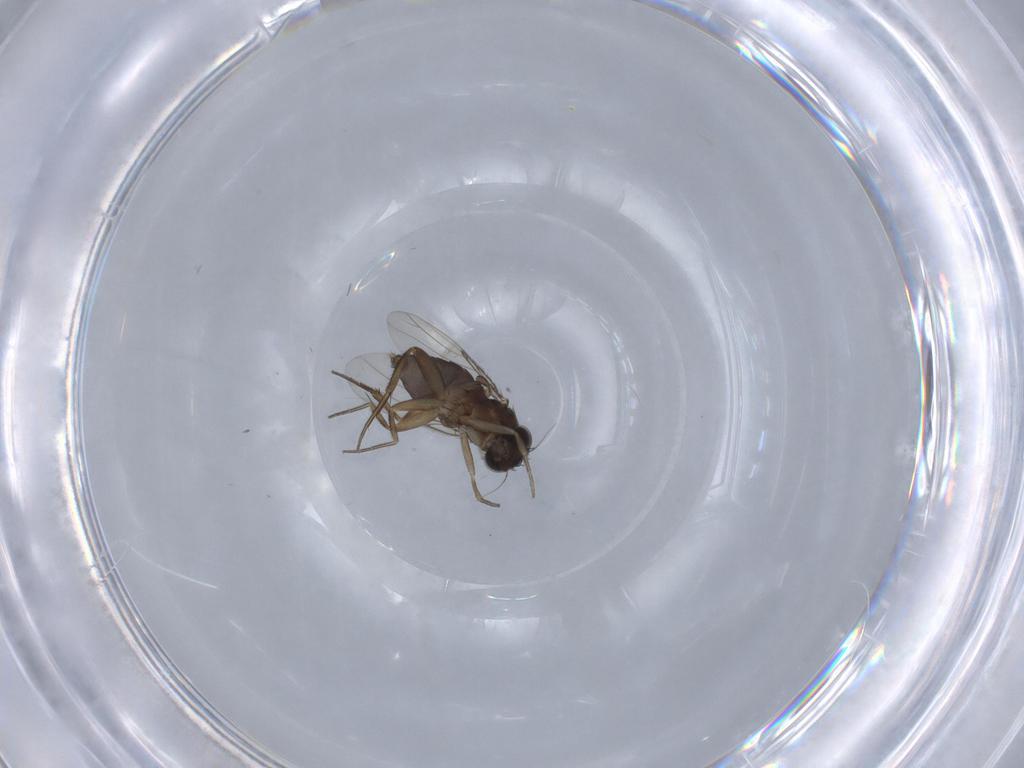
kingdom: Animalia
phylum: Arthropoda
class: Insecta
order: Diptera
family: Phoridae
